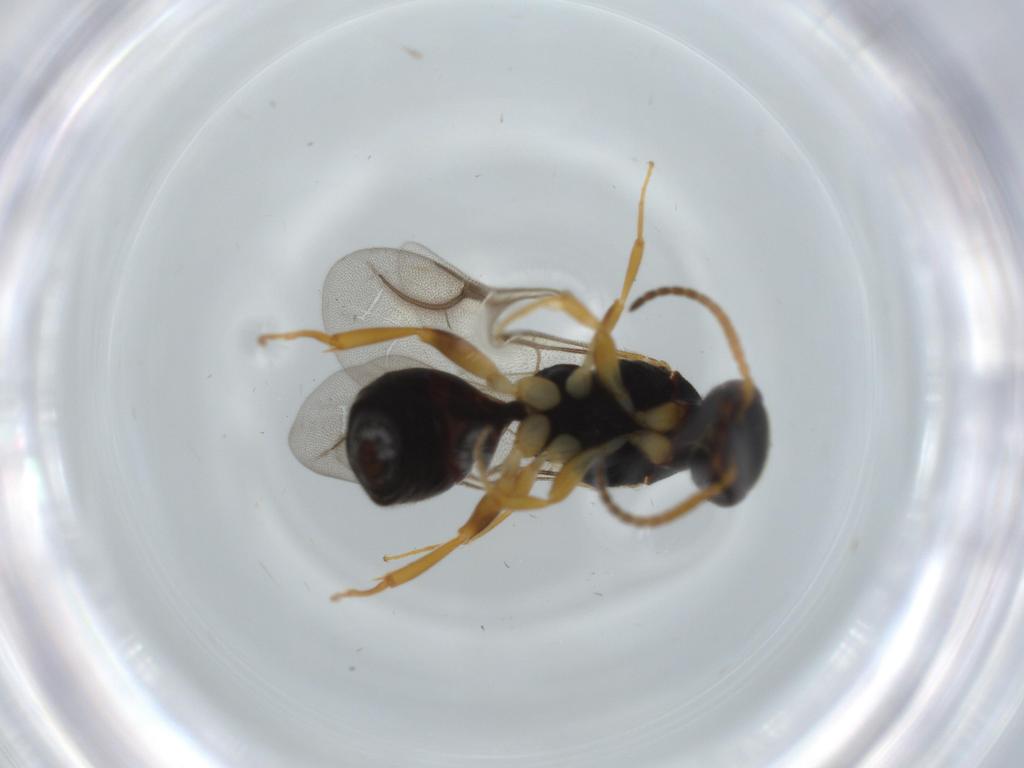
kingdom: Animalia
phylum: Arthropoda
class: Insecta
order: Hymenoptera
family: Bethylidae
